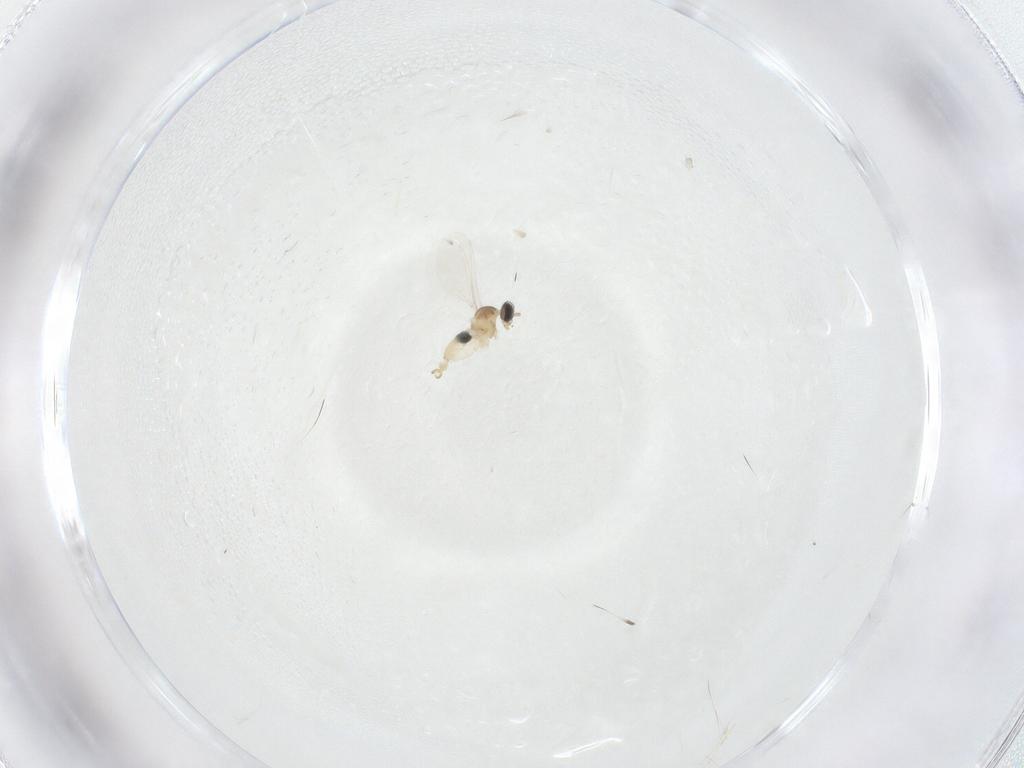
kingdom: Animalia
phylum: Arthropoda
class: Insecta
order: Diptera
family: Cecidomyiidae
